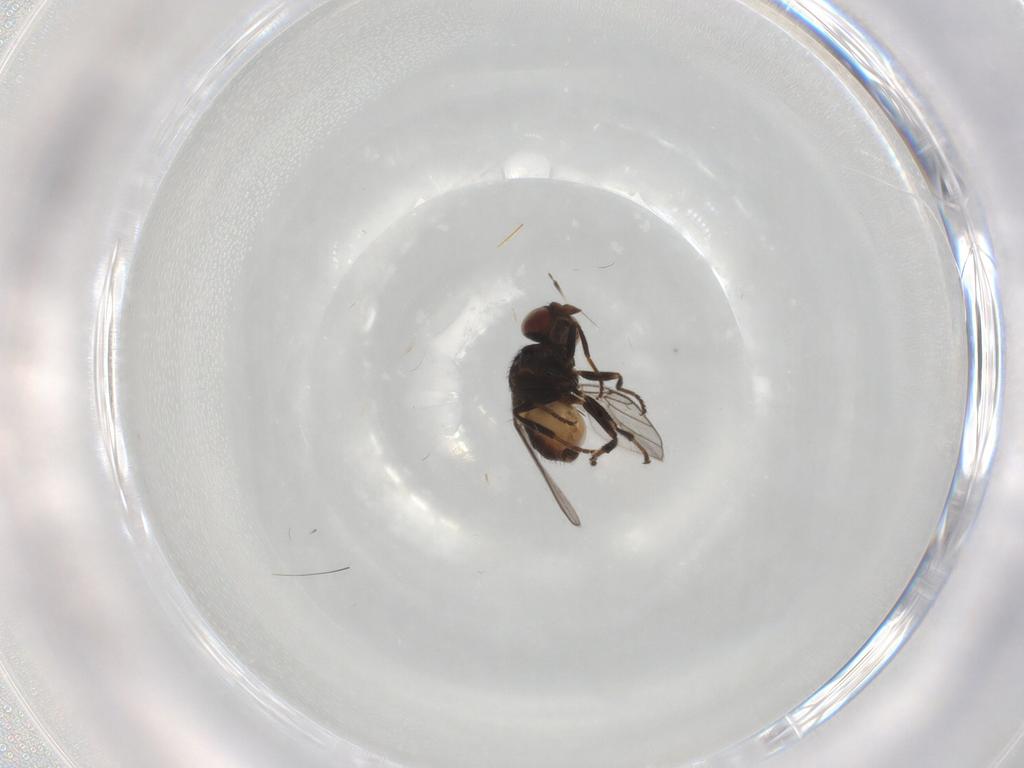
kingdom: Animalia
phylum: Arthropoda
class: Insecta
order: Diptera
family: Chloropidae
